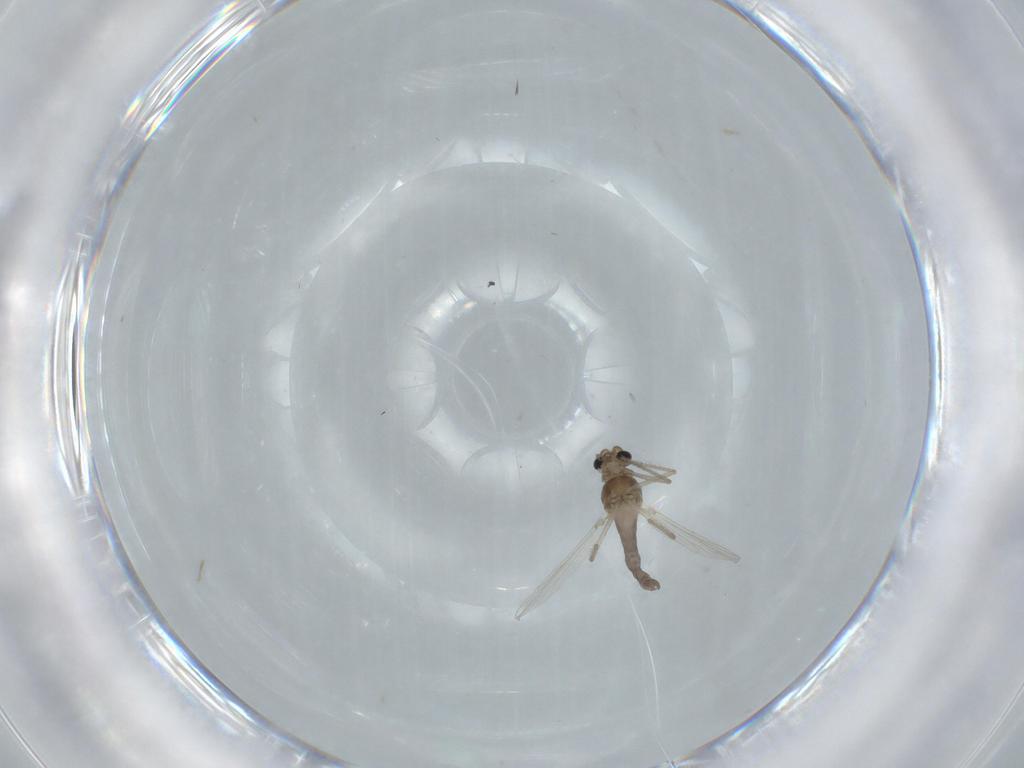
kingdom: Animalia
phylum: Arthropoda
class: Insecta
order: Diptera
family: Chironomidae
